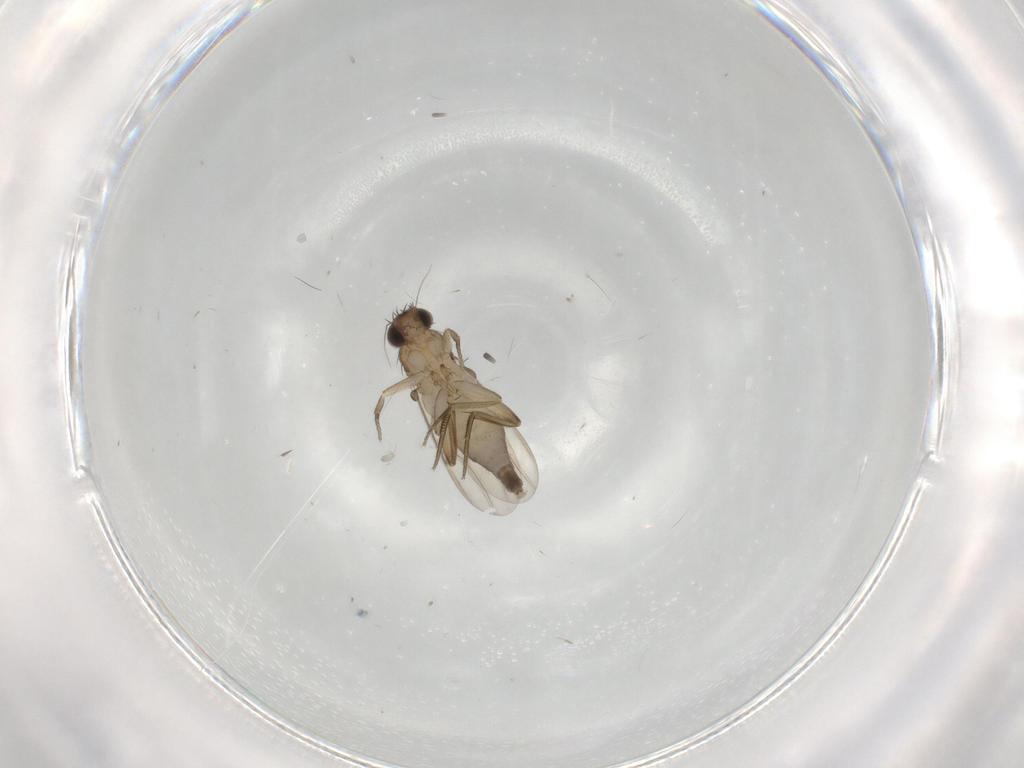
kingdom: Animalia
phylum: Arthropoda
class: Insecta
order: Diptera
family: Phoridae
